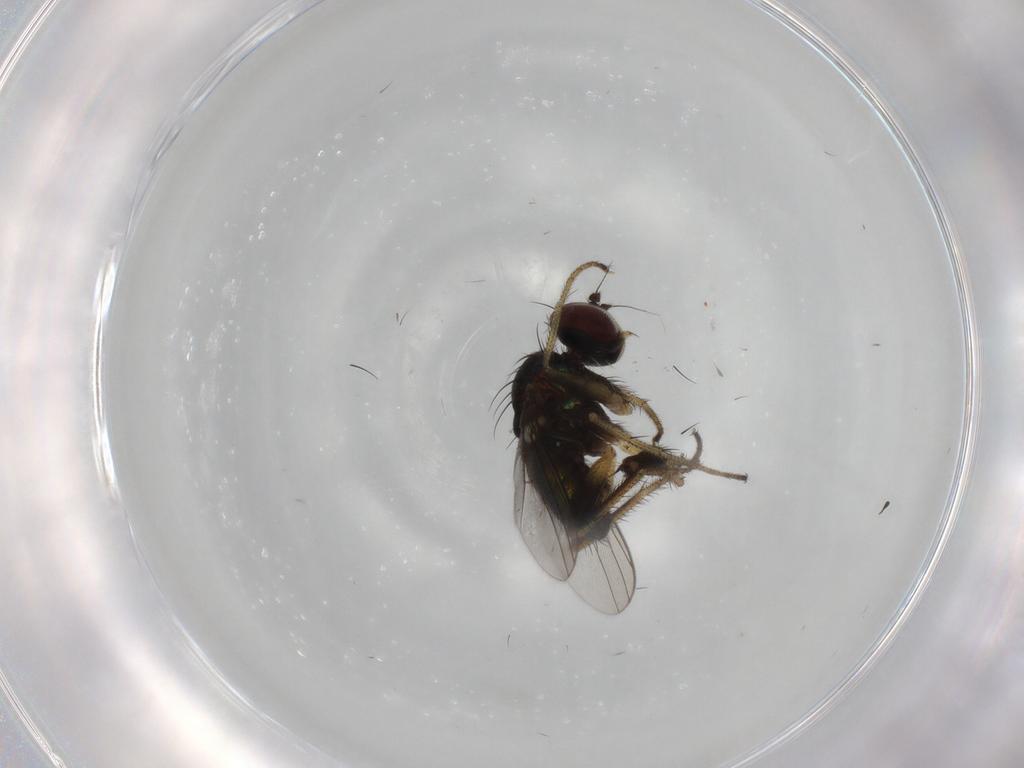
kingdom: Animalia
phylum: Arthropoda
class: Insecta
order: Diptera
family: Dolichopodidae
